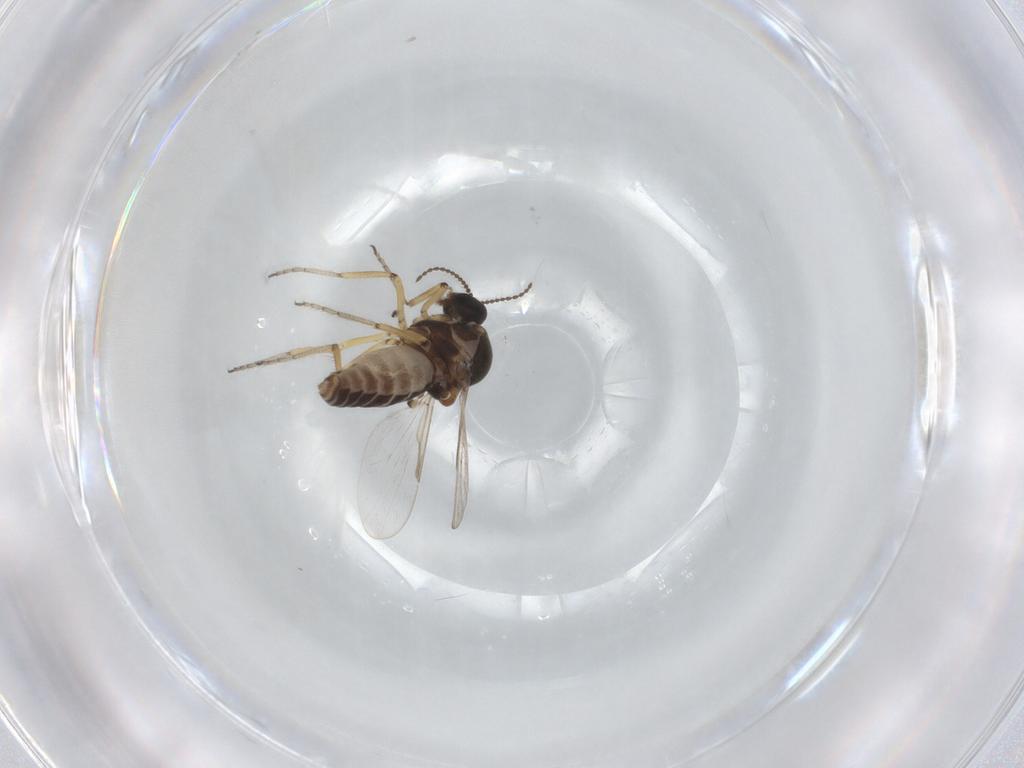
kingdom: Animalia
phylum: Arthropoda
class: Insecta
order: Diptera
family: Ceratopogonidae
